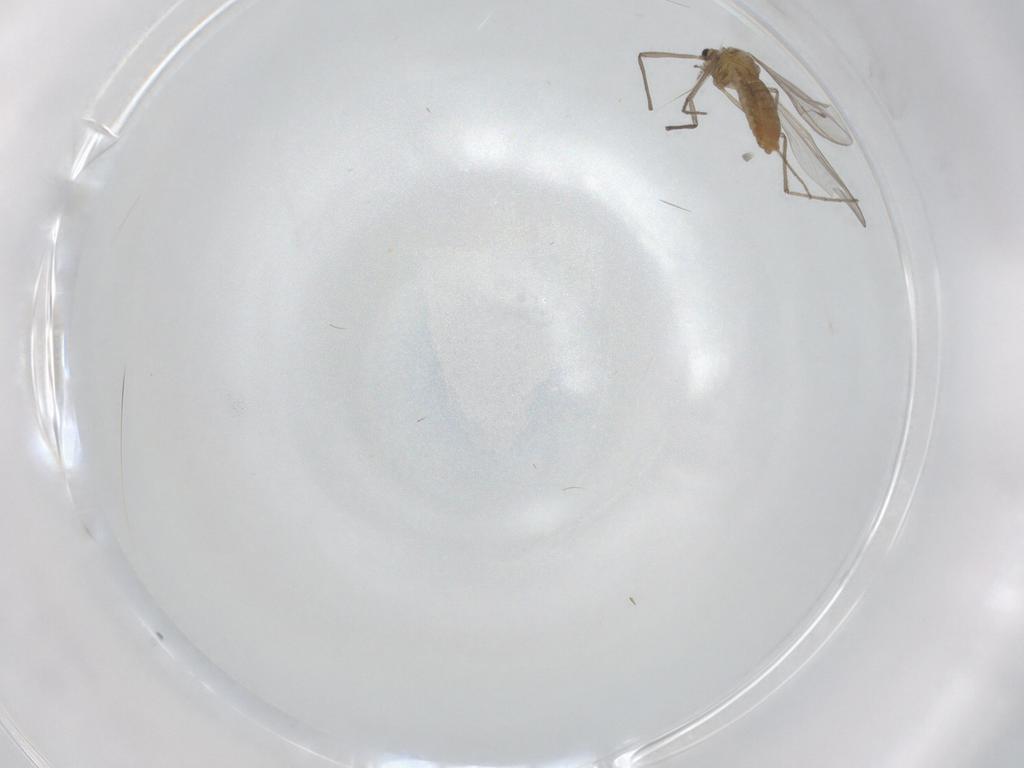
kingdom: Animalia
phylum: Arthropoda
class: Insecta
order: Diptera
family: Chironomidae
